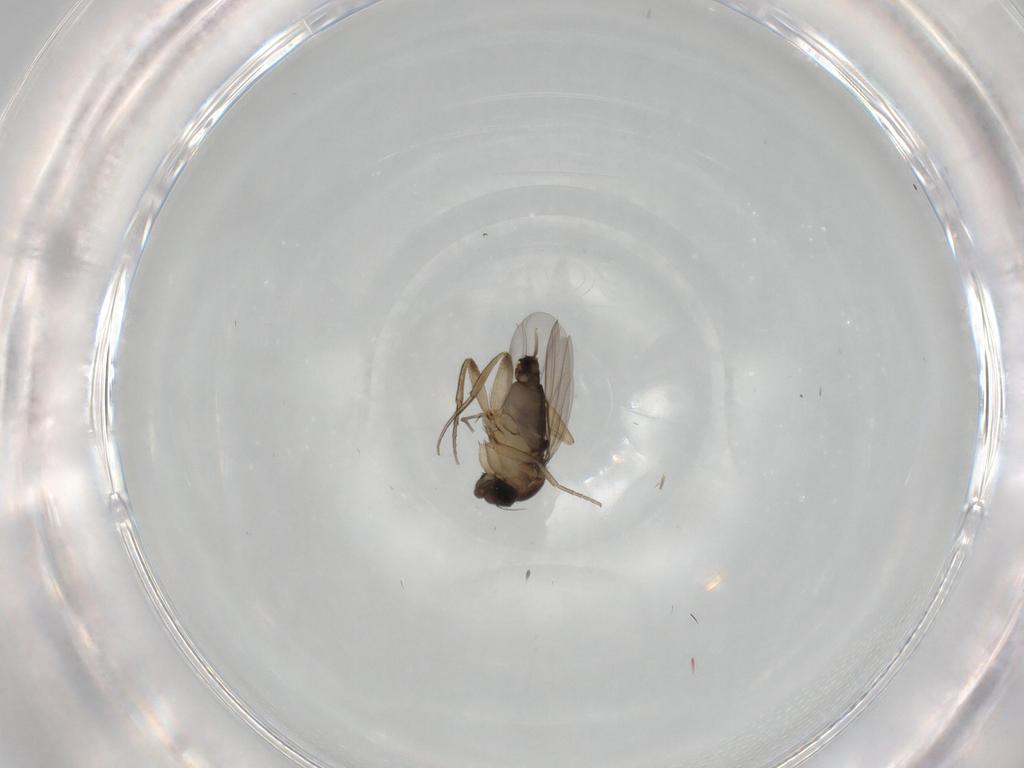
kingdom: Animalia
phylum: Arthropoda
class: Insecta
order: Diptera
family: Phoridae
